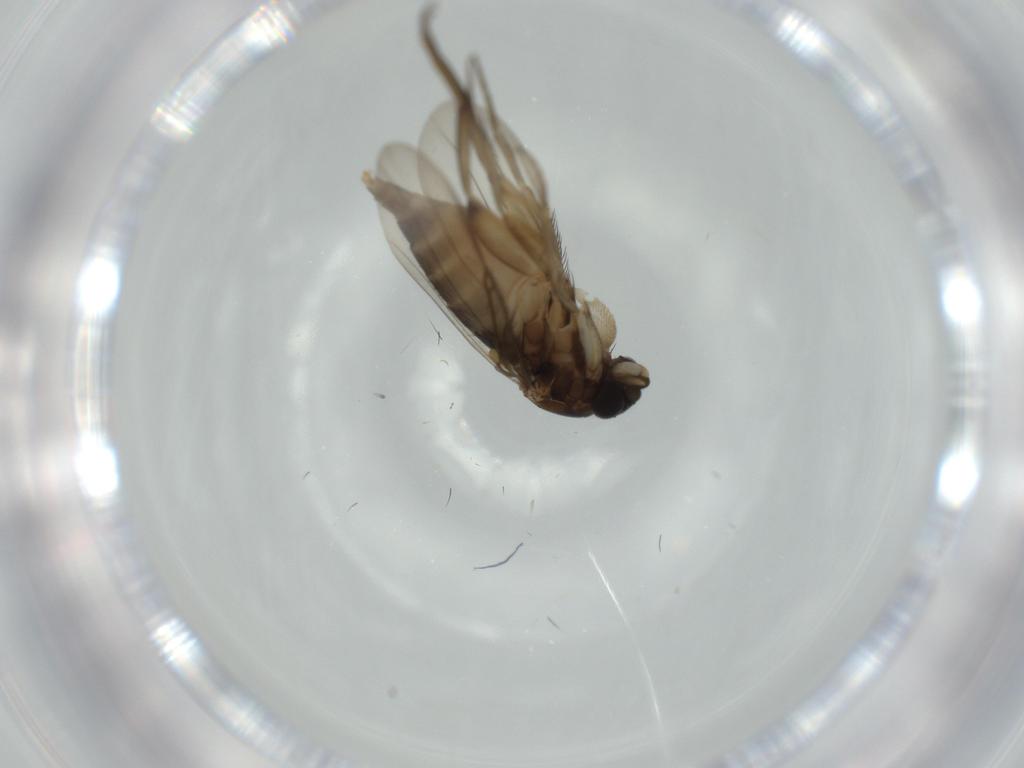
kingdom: Animalia
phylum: Arthropoda
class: Insecta
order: Diptera
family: Phoridae
